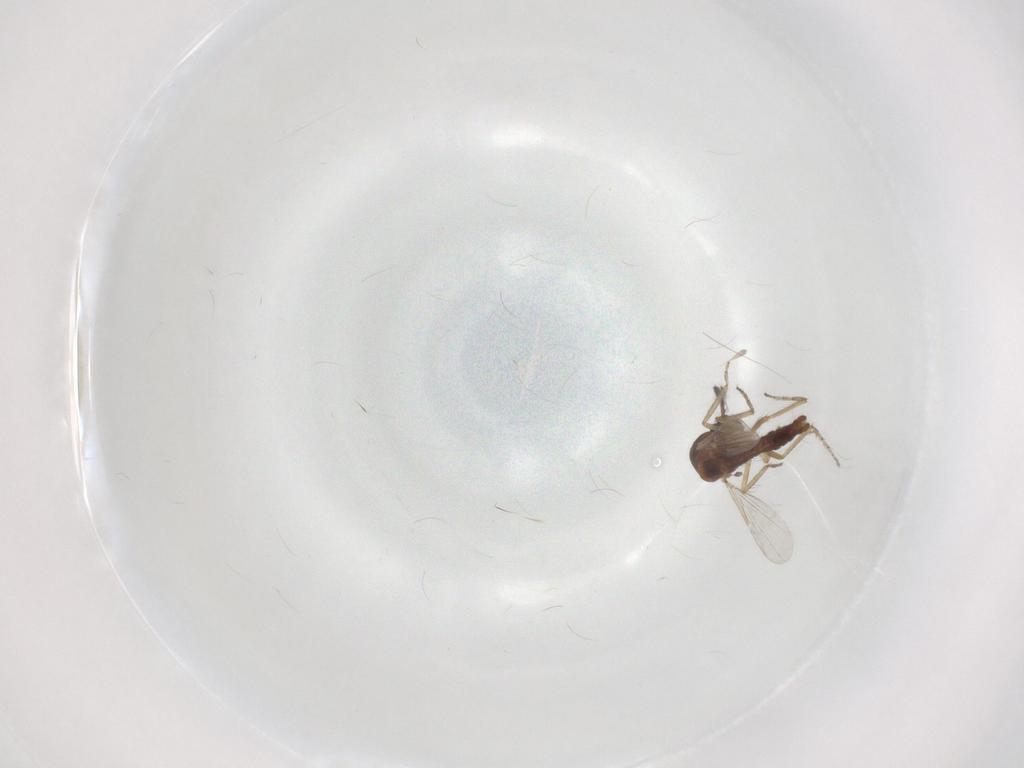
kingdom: Animalia
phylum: Arthropoda
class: Insecta
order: Diptera
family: Ceratopogonidae
